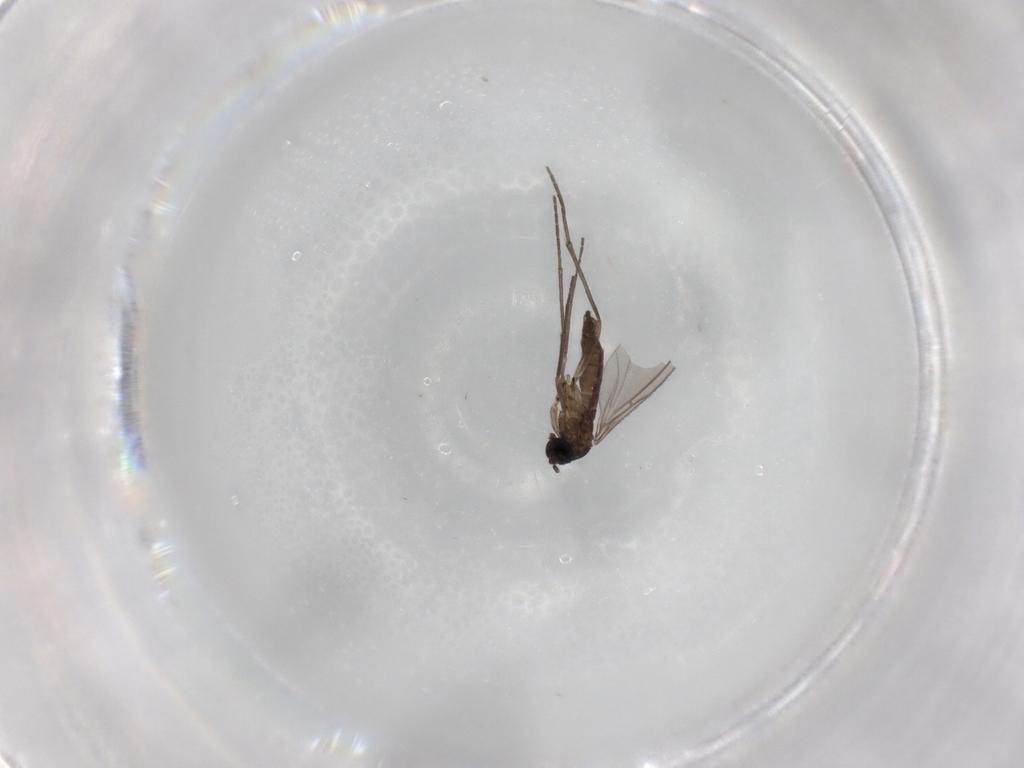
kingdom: Animalia
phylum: Arthropoda
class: Insecta
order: Diptera
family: Sciaridae
